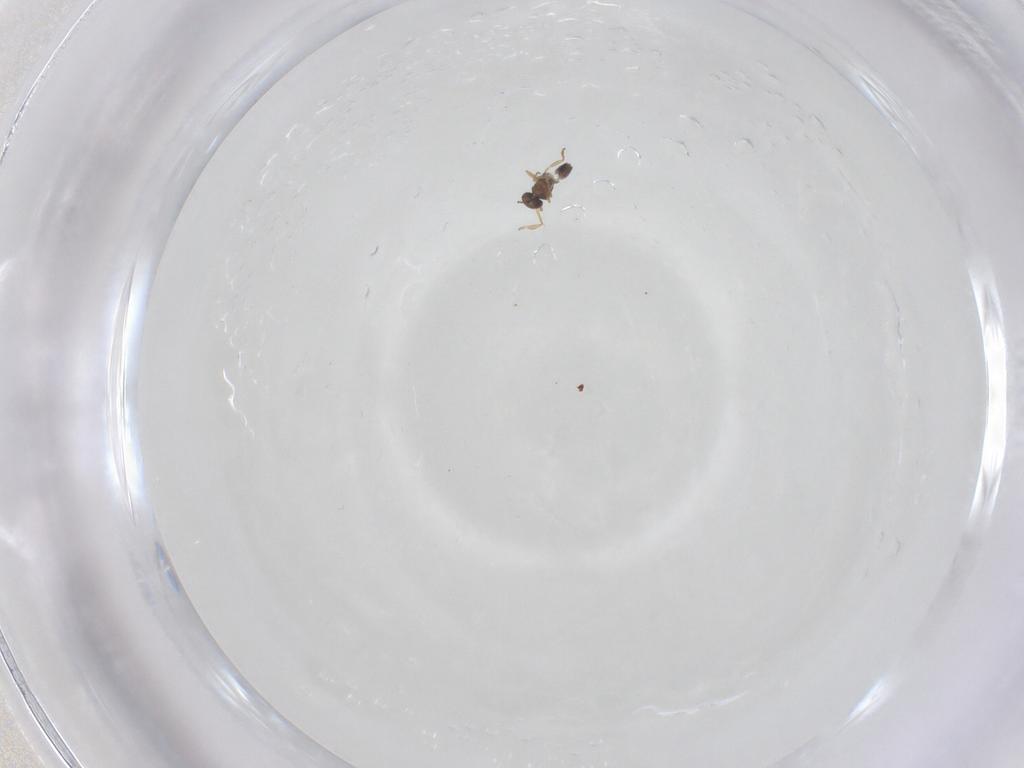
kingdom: Animalia
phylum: Arthropoda
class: Insecta
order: Hymenoptera
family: Mymaridae
